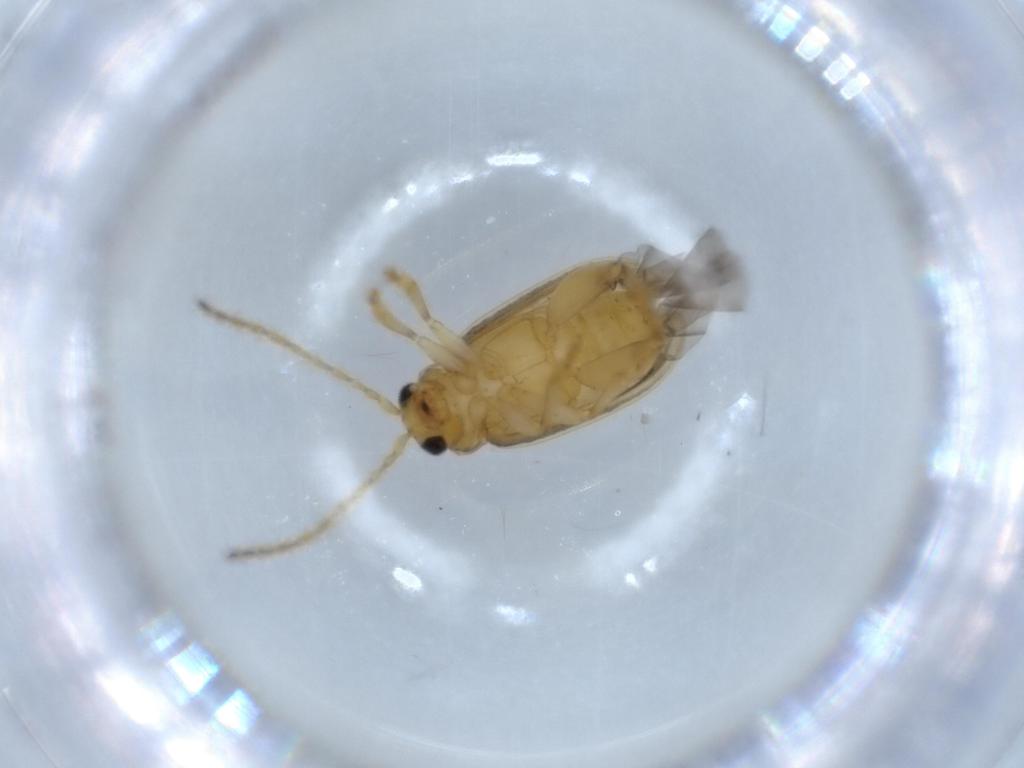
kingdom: Animalia
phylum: Arthropoda
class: Insecta
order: Coleoptera
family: Chrysomelidae
